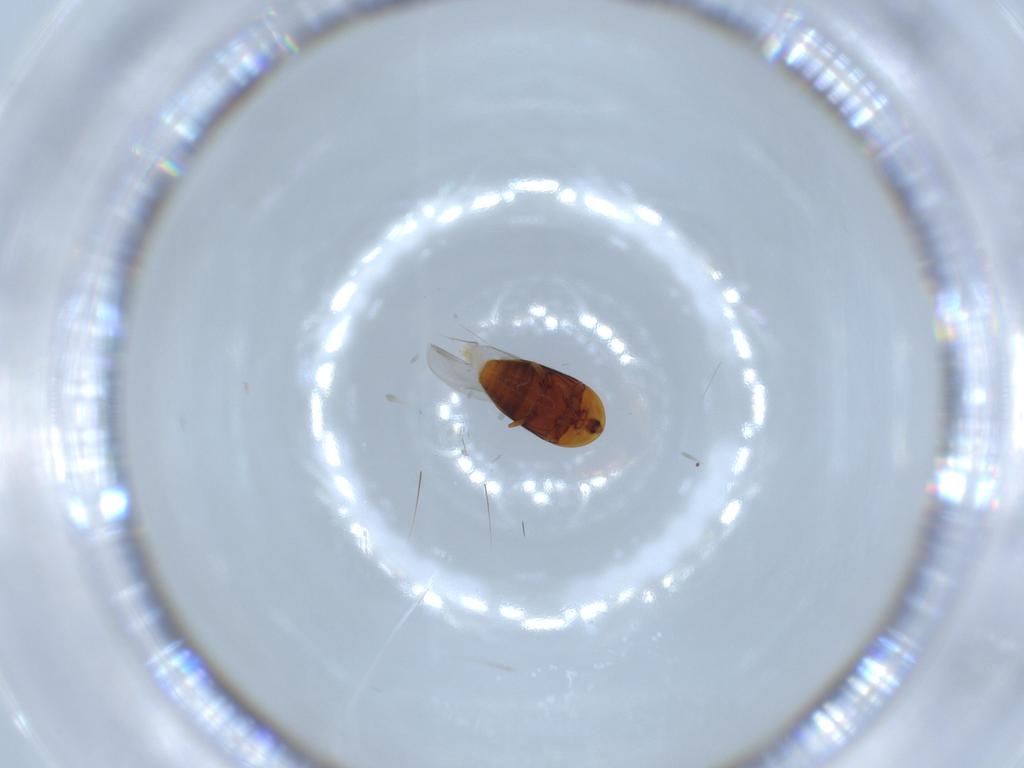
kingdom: Animalia
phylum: Arthropoda
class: Insecta
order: Coleoptera
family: Corylophidae
